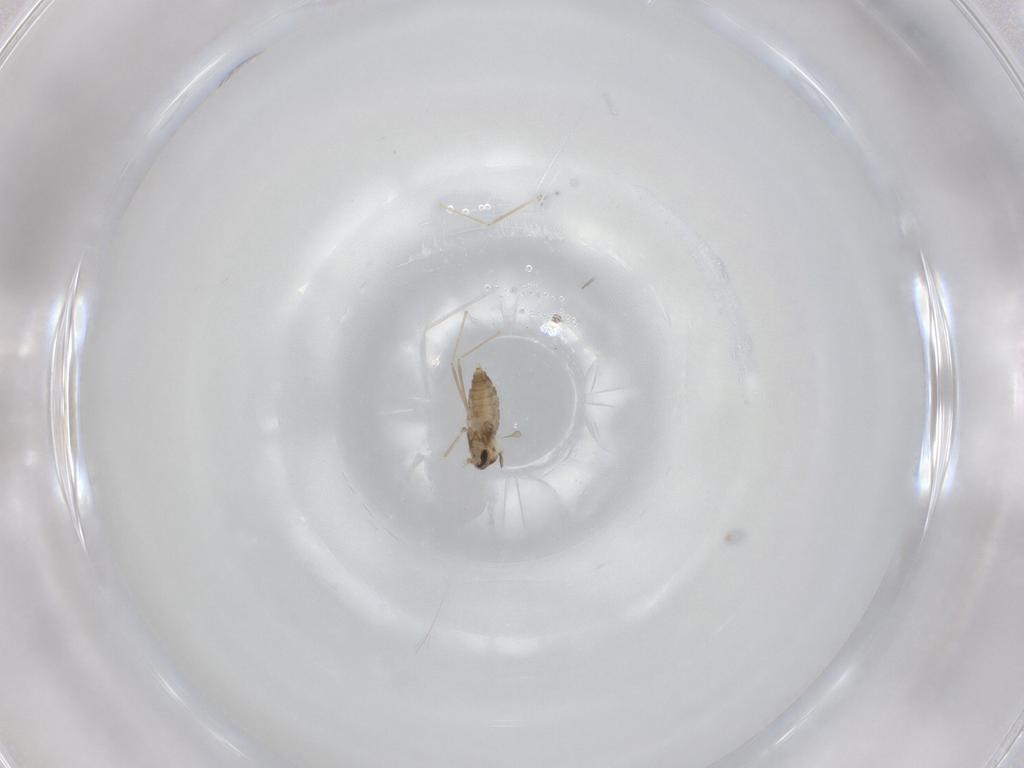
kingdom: Animalia
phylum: Arthropoda
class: Insecta
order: Diptera
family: Cecidomyiidae
